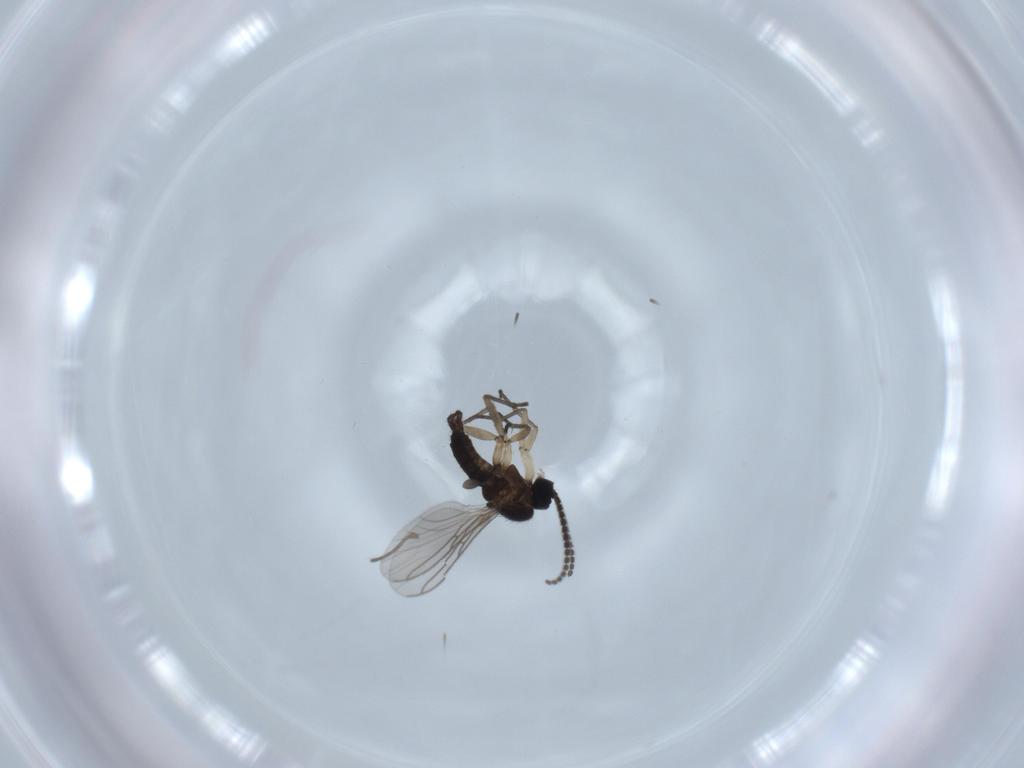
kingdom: Animalia
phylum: Arthropoda
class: Insecta
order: Diptera
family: Sciaridae
